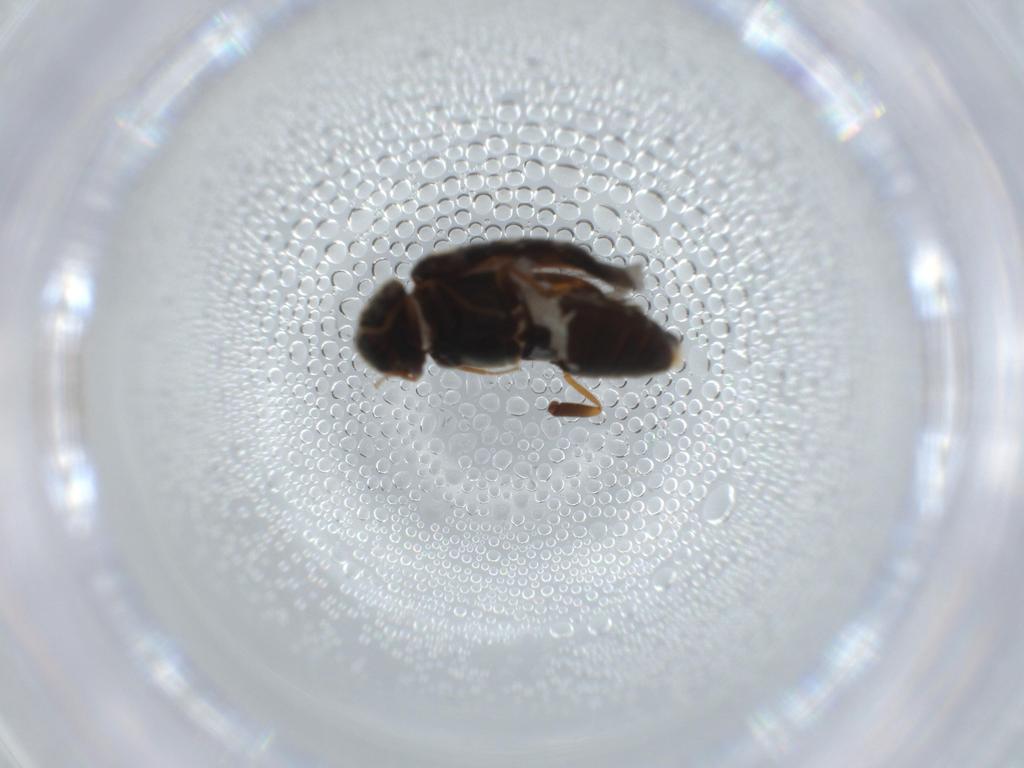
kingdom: Animalia
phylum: Arthropoda
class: Insecta
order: Coleoptera
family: Dermestidae
